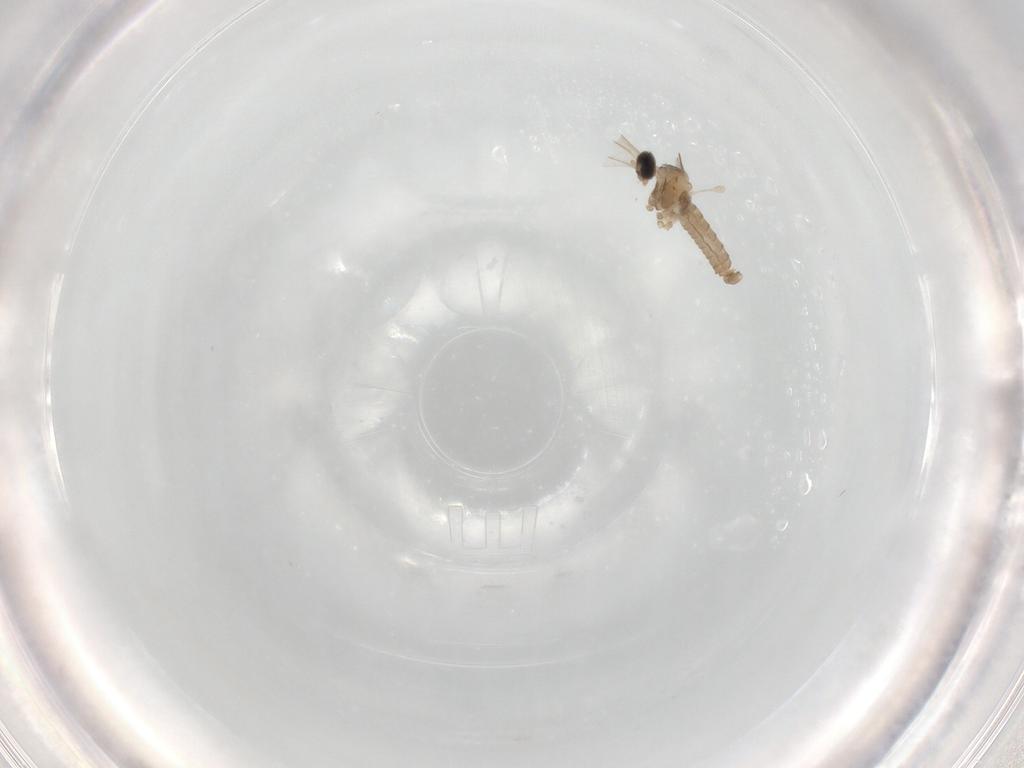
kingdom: Animalia
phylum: Arthropoda
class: Insecta
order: Diptera
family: Cecidomyiidae
